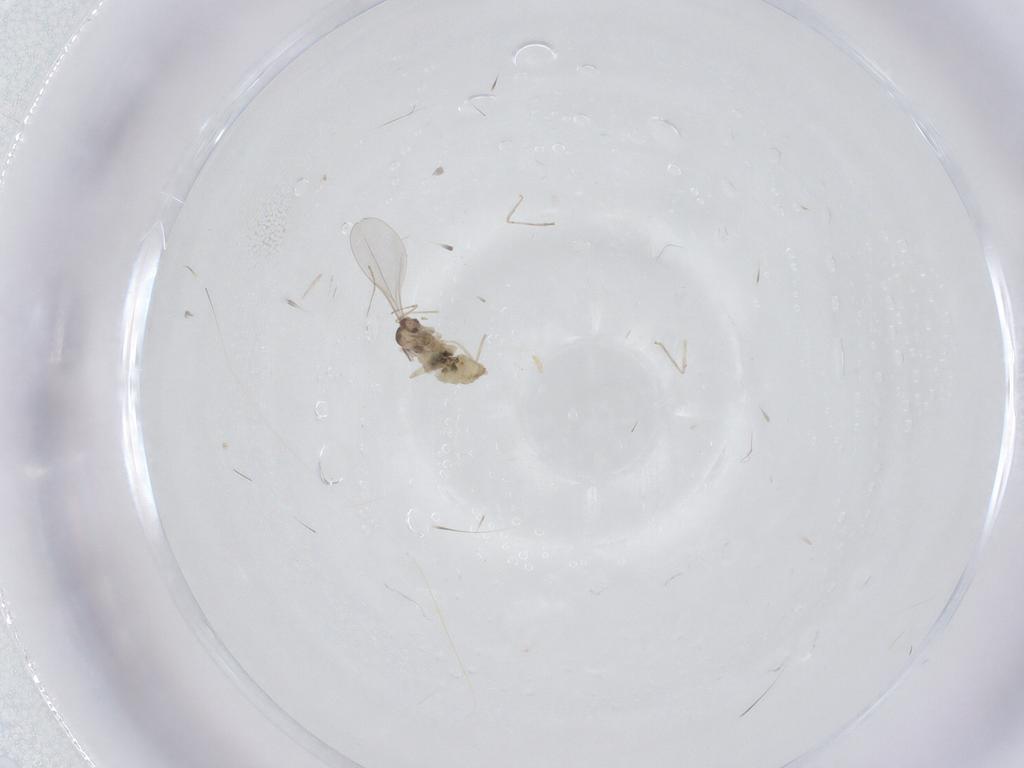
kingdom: Animalia
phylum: Arthropoda
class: Insecta
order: Diptera
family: Cecidomyiidae
